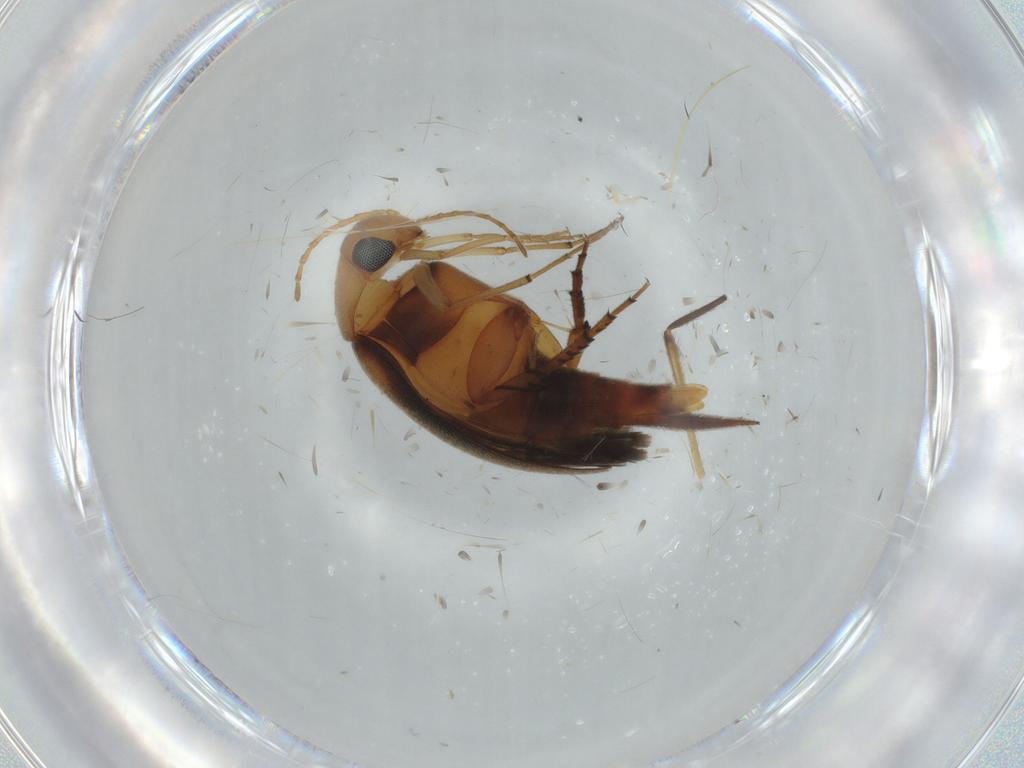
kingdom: Animalia
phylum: Arthropoda
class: Insecta
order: Coleoptera
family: Mordellidae
